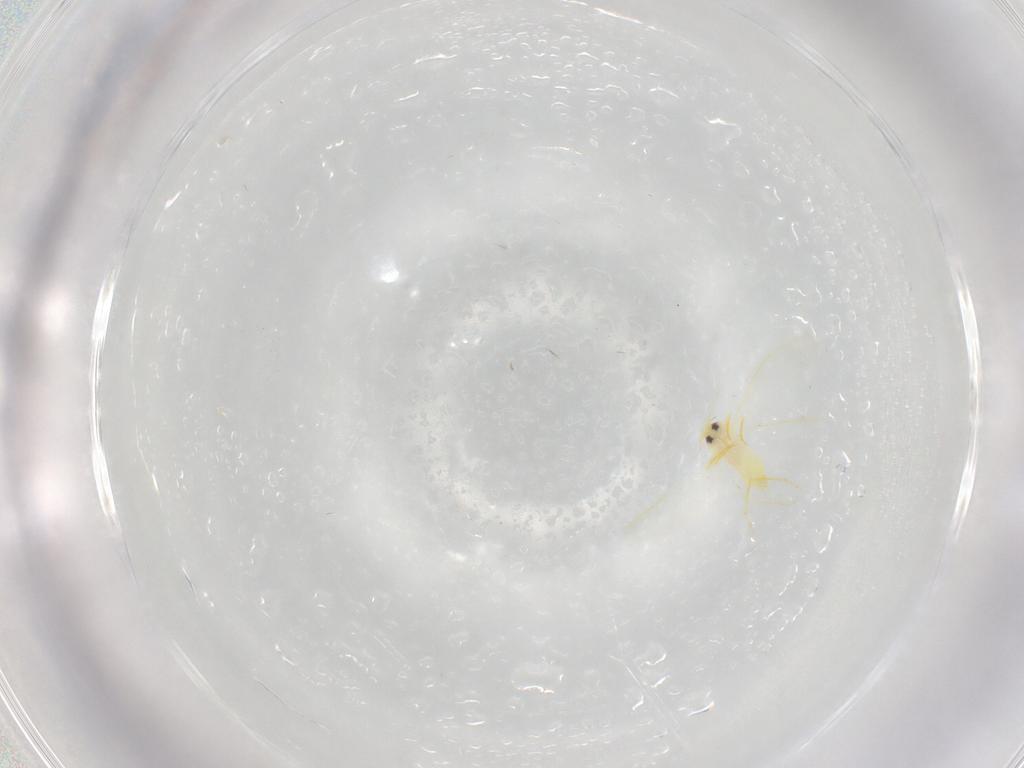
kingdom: Animalia
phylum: Arthropoda
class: Insecta
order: Hemiptera
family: Aleyrodidae
